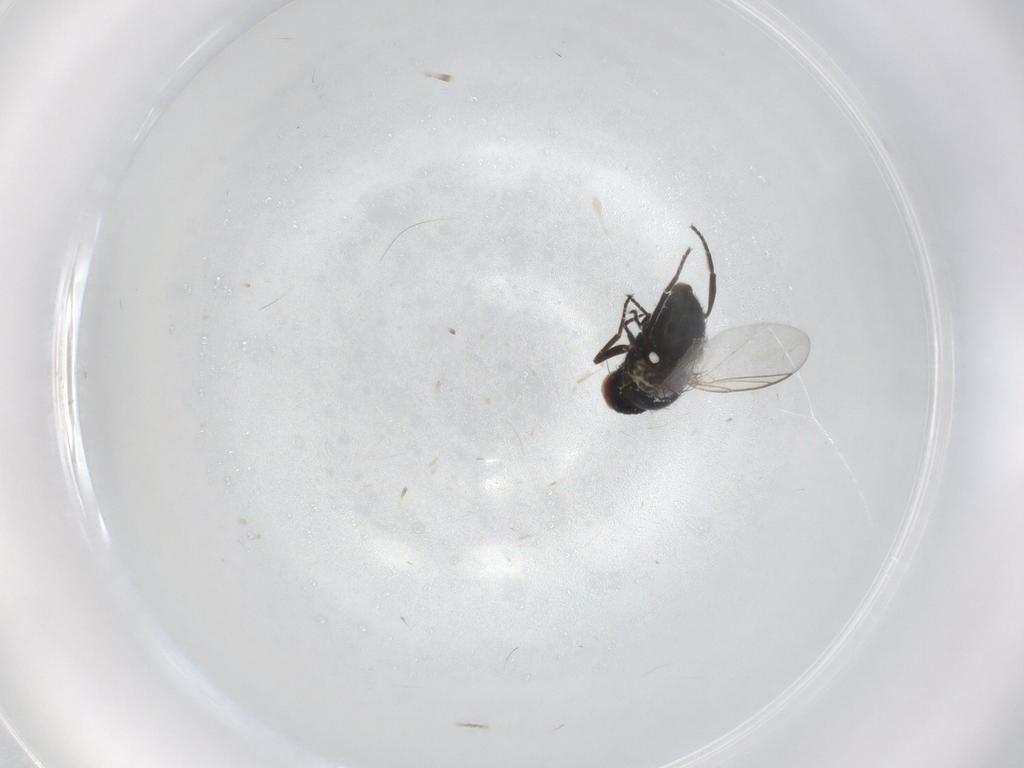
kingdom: Animalia
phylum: Arthropoda
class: Insecta
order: Diptera
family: Agromyzidae
